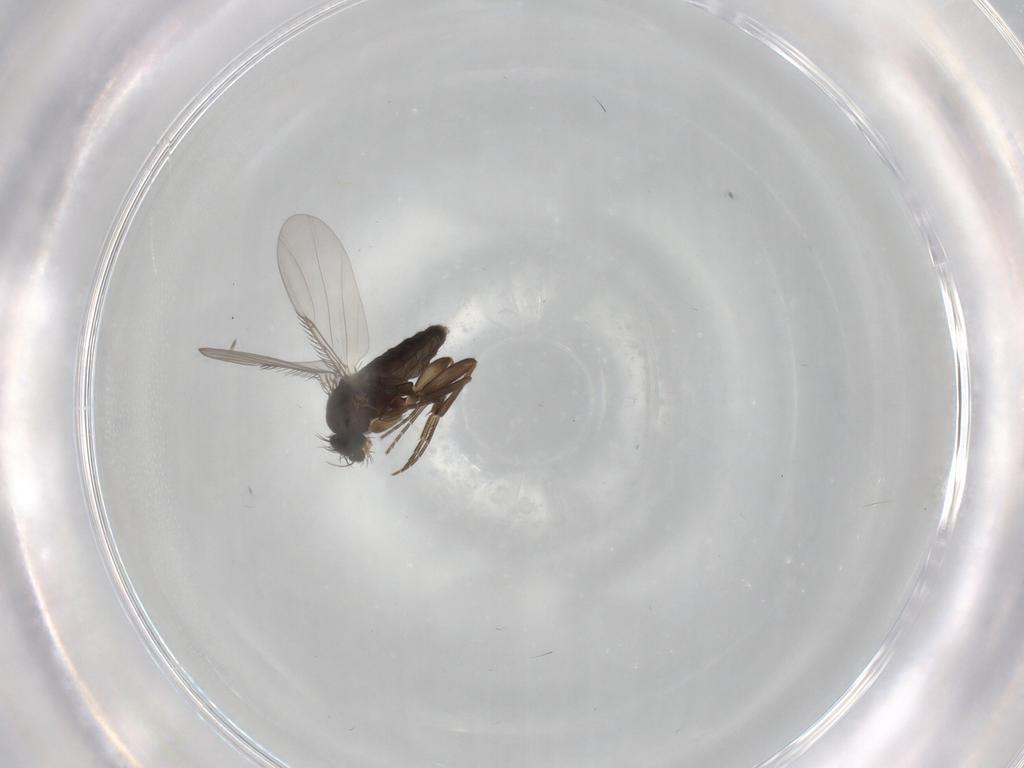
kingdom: Animalia
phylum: Arthropoda
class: Insecta
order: Diptera
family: Phoridae
